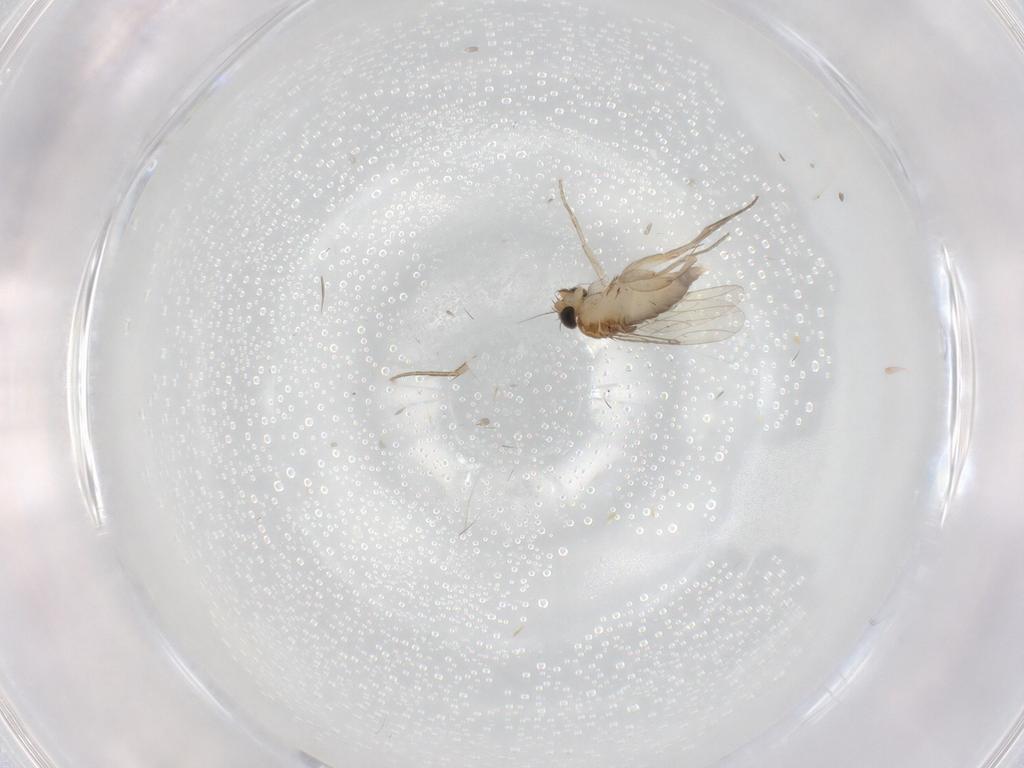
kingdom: Animalia
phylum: Arthropoda
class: Insecta
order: Diptera
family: Phoridae
